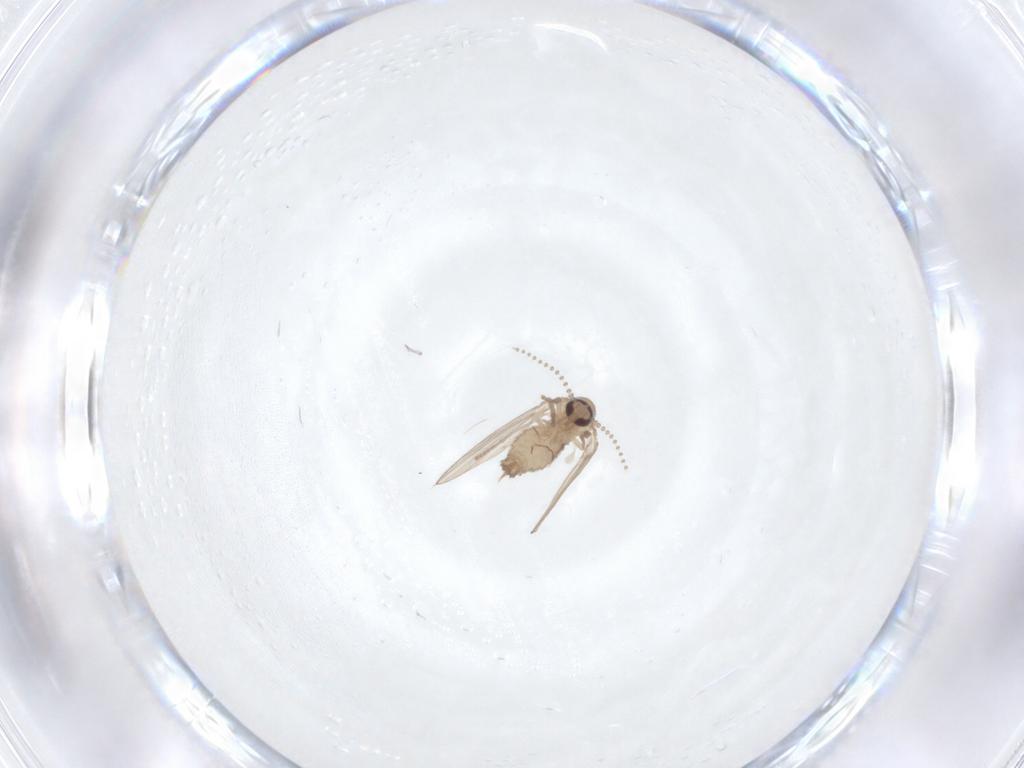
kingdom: Animalia
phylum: Arthropoda
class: Insecta
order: Diptera
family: Psychodidae
